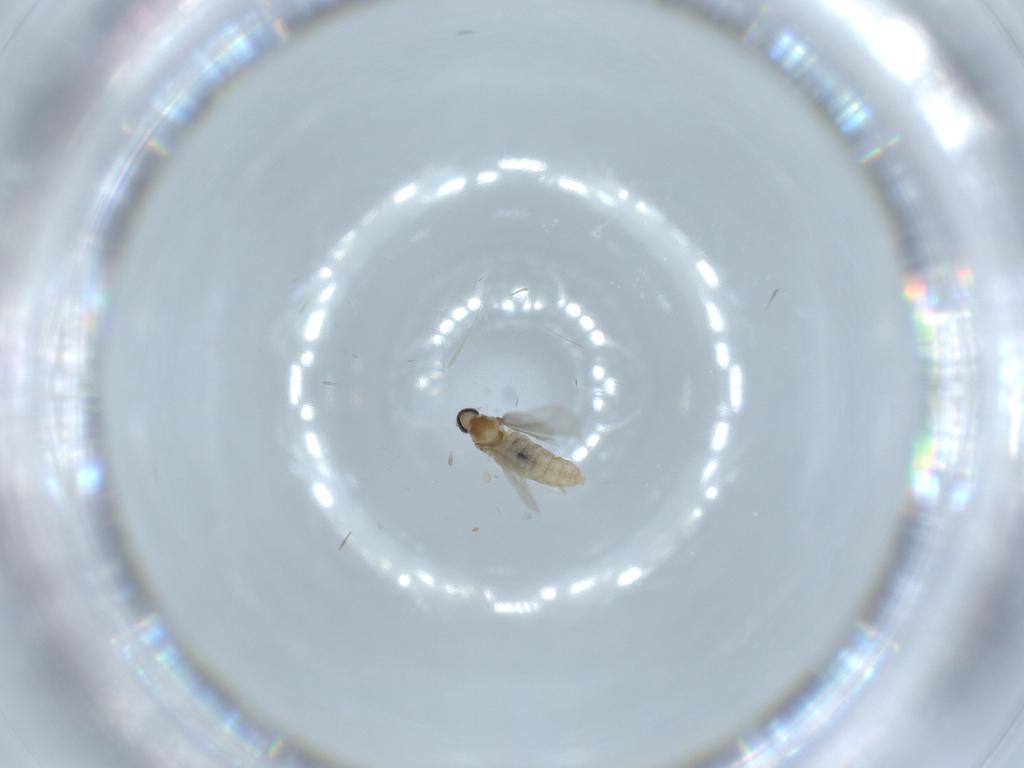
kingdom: Animalia
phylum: Arthropoda
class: Insecta
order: Diptera
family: Cecidomyiidae
